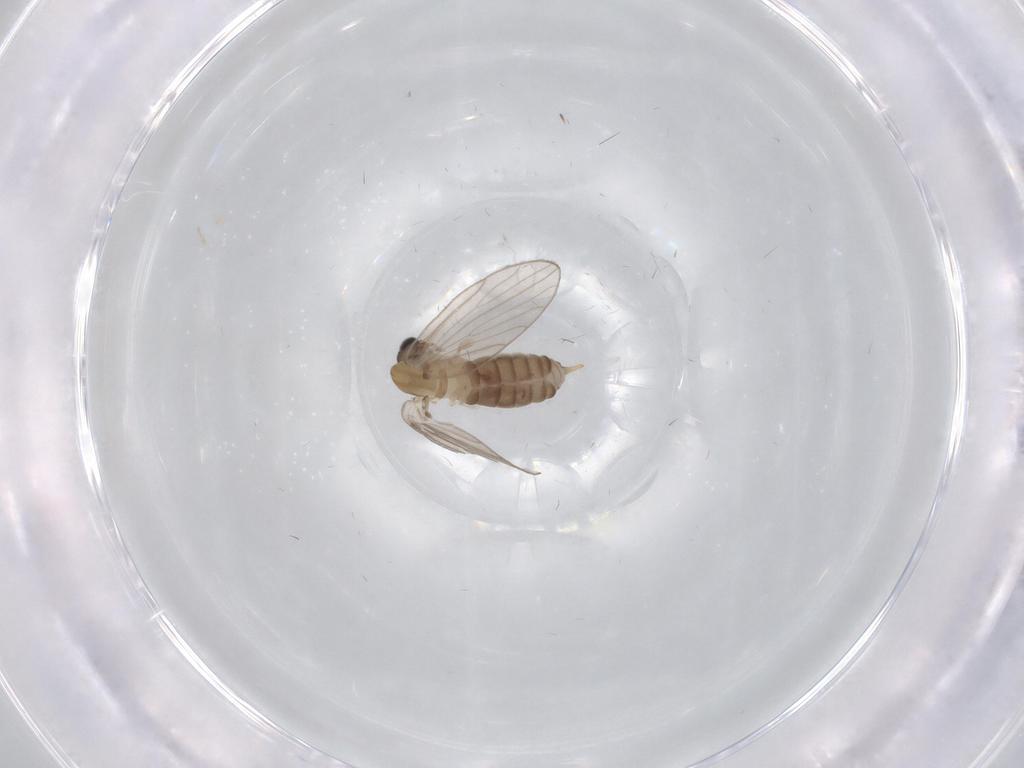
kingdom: Animalia
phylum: Arthropoda
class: Insecta
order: Diptera
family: Psychodidae
